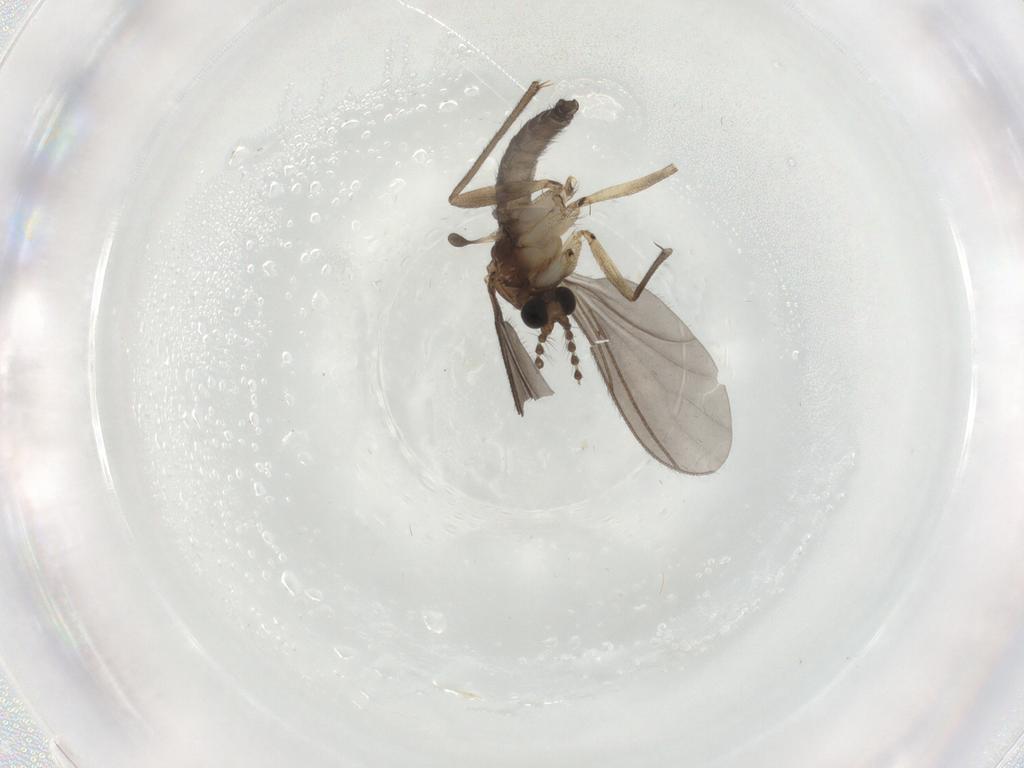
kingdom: Animalia
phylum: Arthropoda
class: Insecta
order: Diptera
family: Sciaridae
